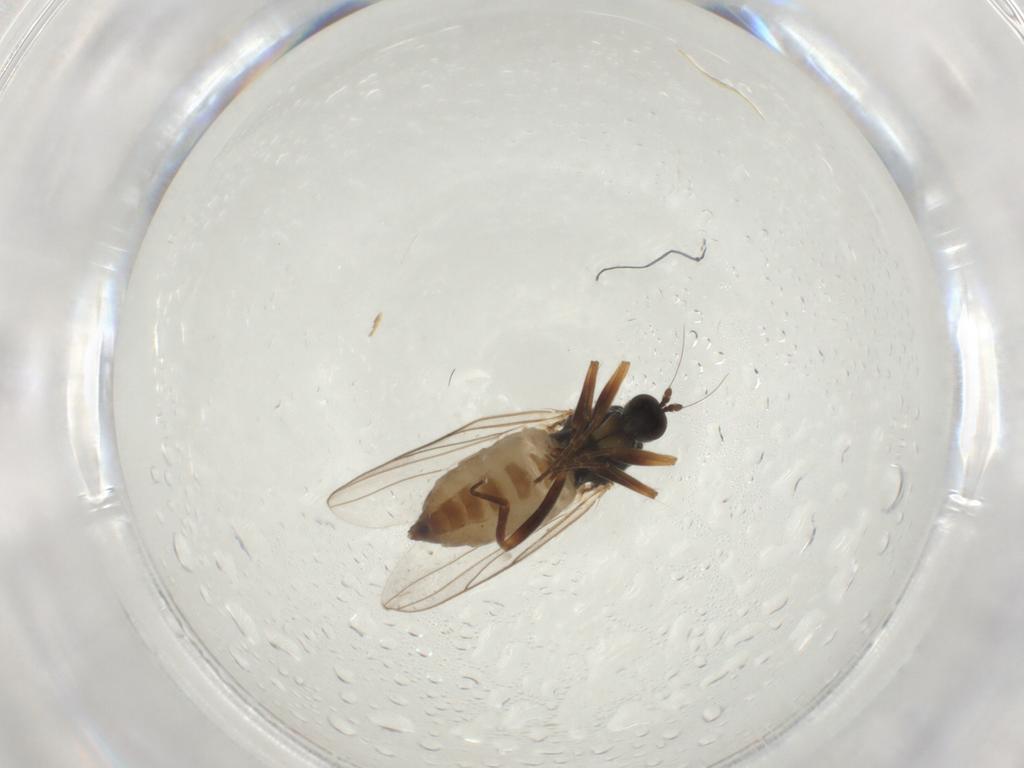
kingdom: Animalia
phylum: Arthropoda
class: Insecta
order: Diptera
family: Hybotidae
